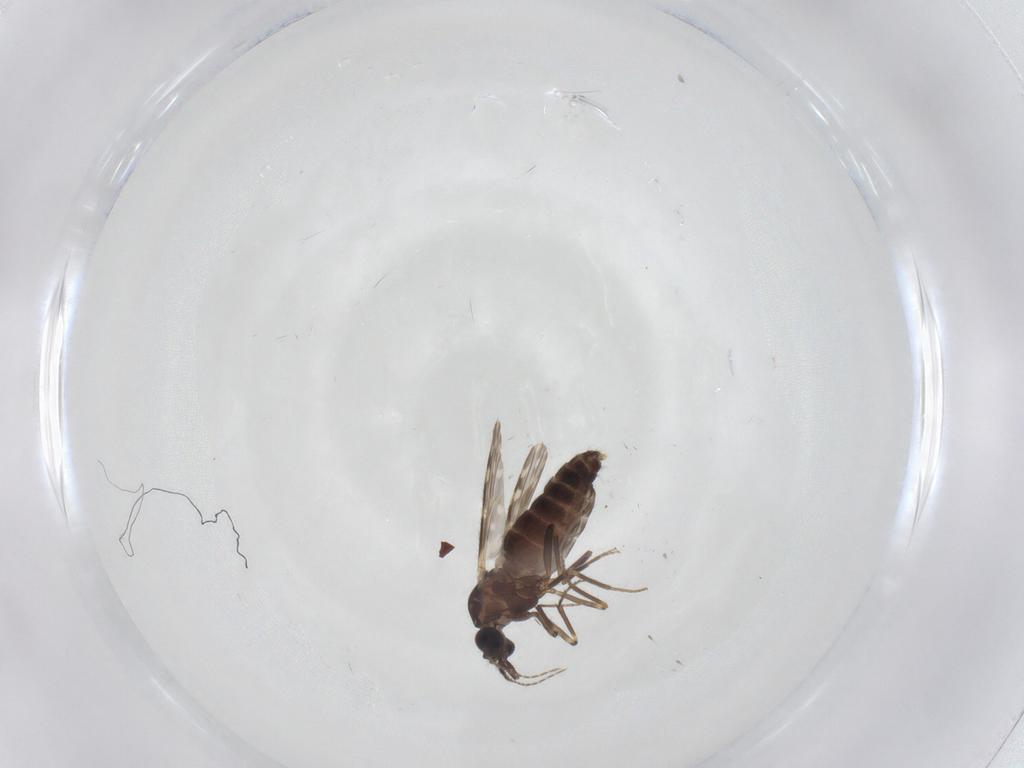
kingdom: Animalia
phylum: Arthropoda
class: Insecta
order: Diptera
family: Ceratopogonidae
